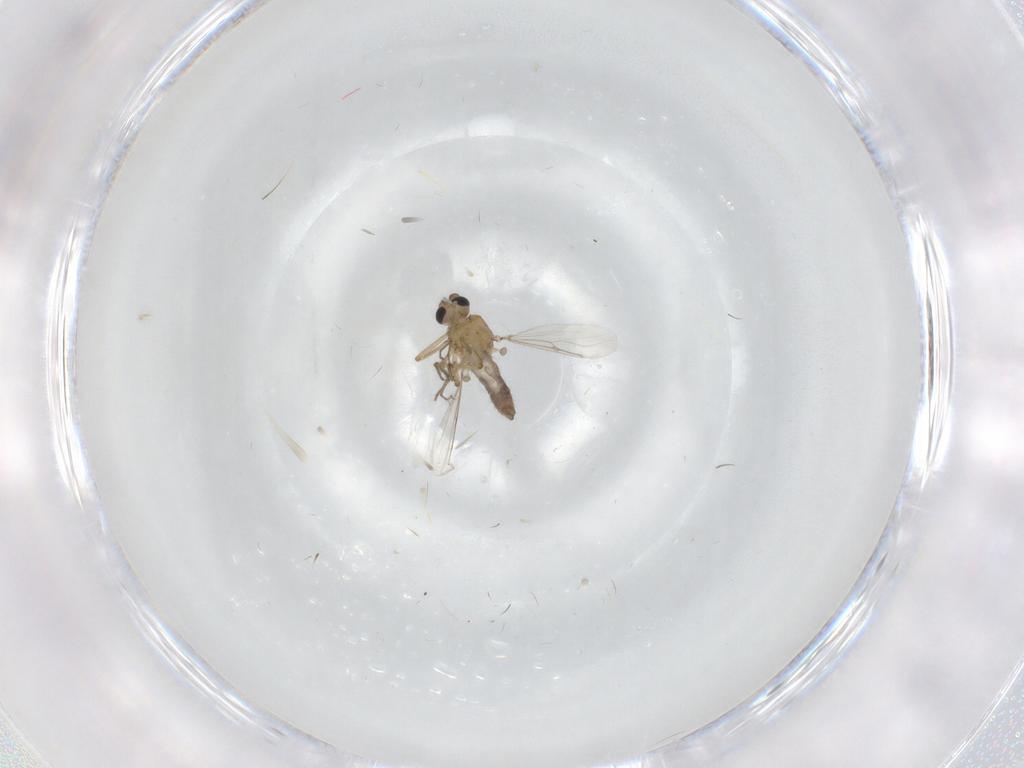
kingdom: Animalia
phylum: Arthropoda
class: Insecta
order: Diptera
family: Drosophilidae
